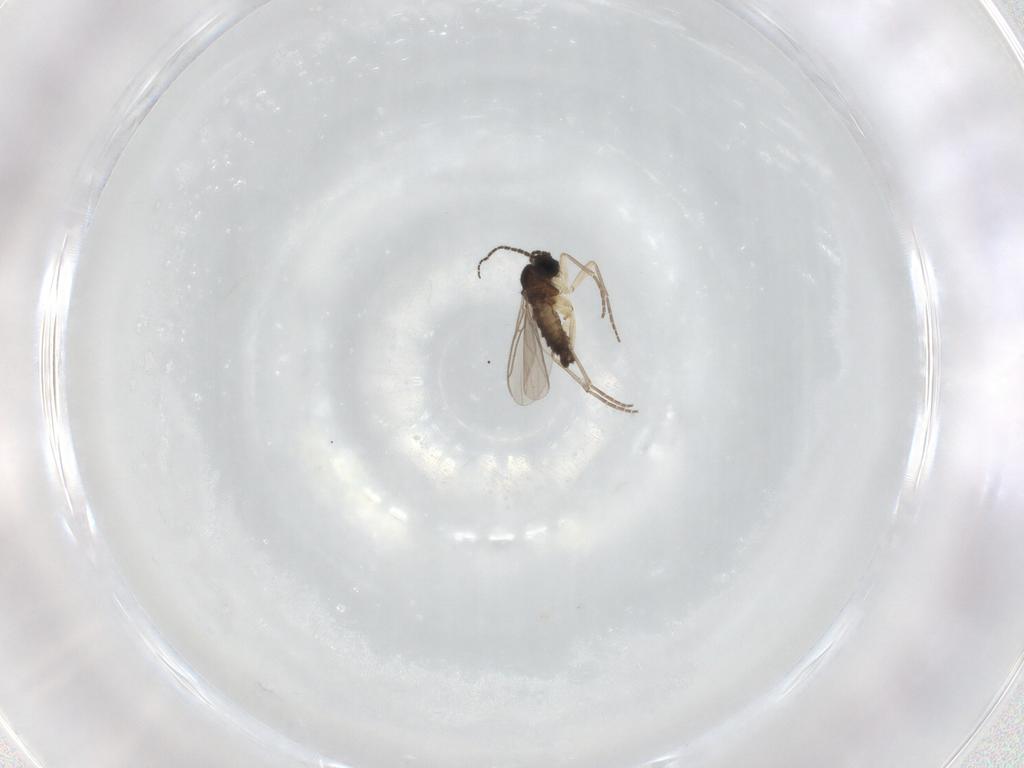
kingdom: Animalia
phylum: Arthropoda
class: Insecta
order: Diptera
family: Sciaridae
